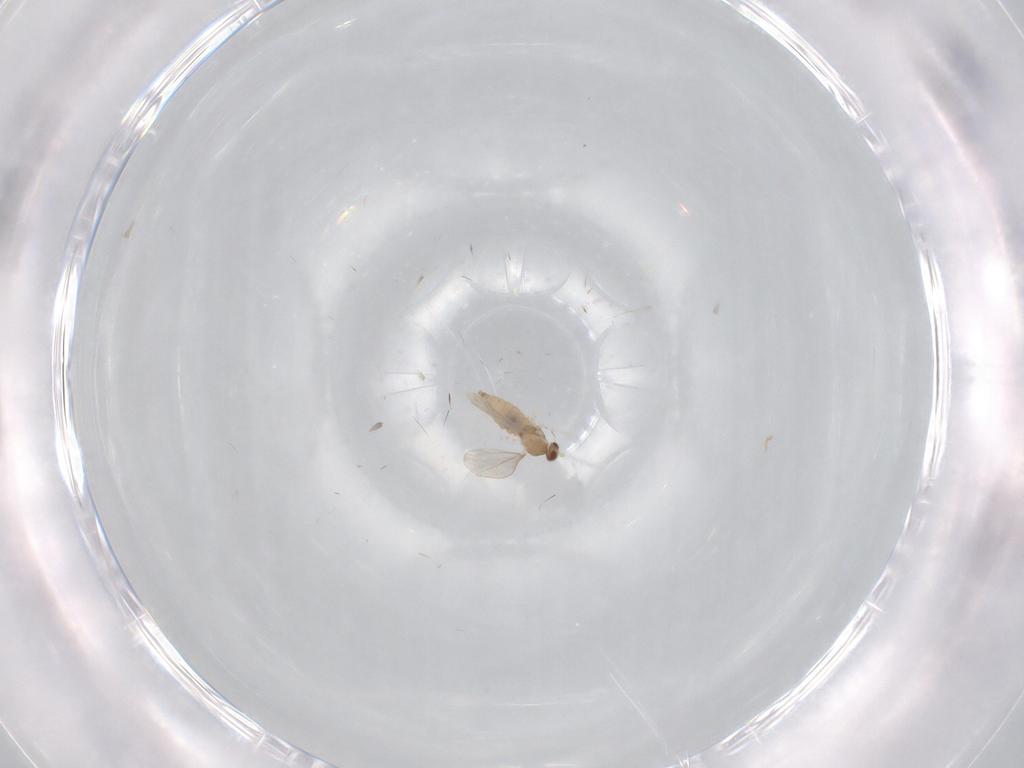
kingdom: Animalia
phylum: Arthropoda
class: Insecta
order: Diptera
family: Cecidomyiidae
